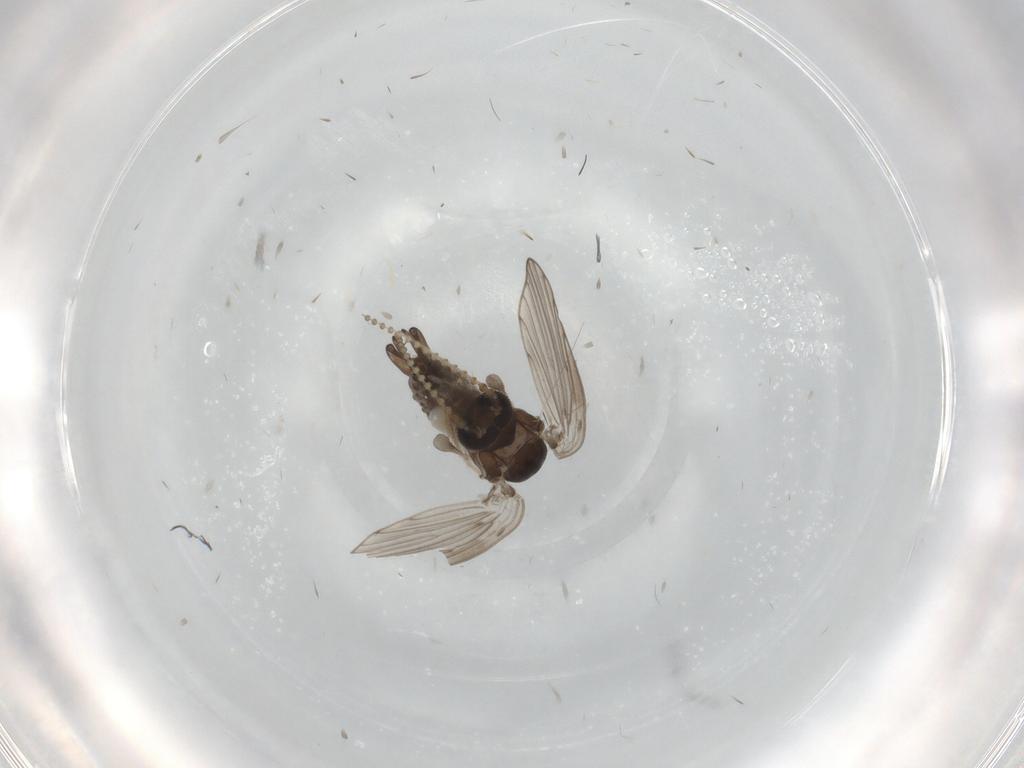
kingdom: Animalia
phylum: Arthropoda
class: Insecta
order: Diptera
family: Psychodidae
